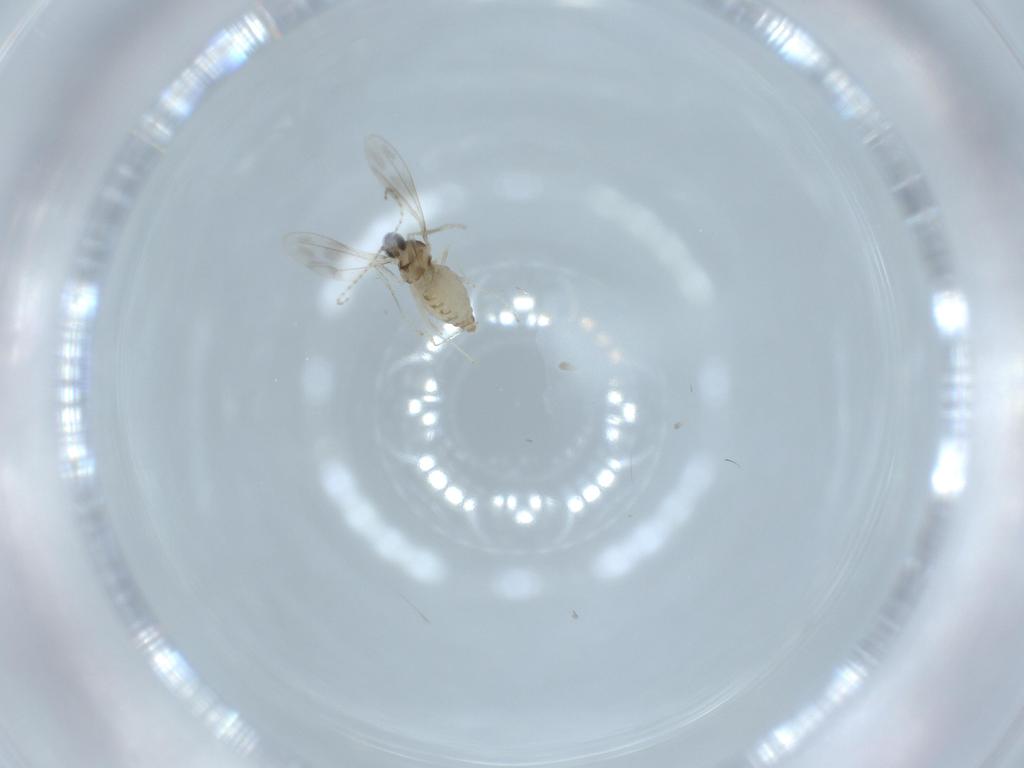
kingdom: Animalia
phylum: Arthropoda
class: Insecta
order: Diptera
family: Cecidomyiidae
